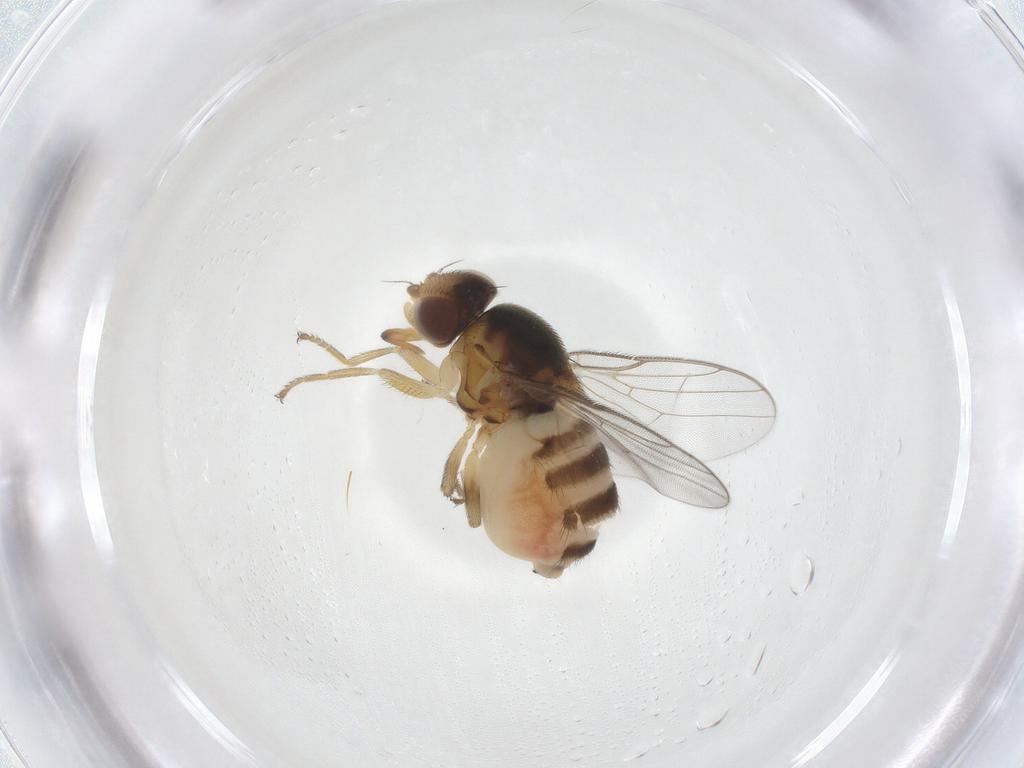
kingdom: Animalia
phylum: Arthropoda
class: Insecta
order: Diptera
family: Chloropidae
